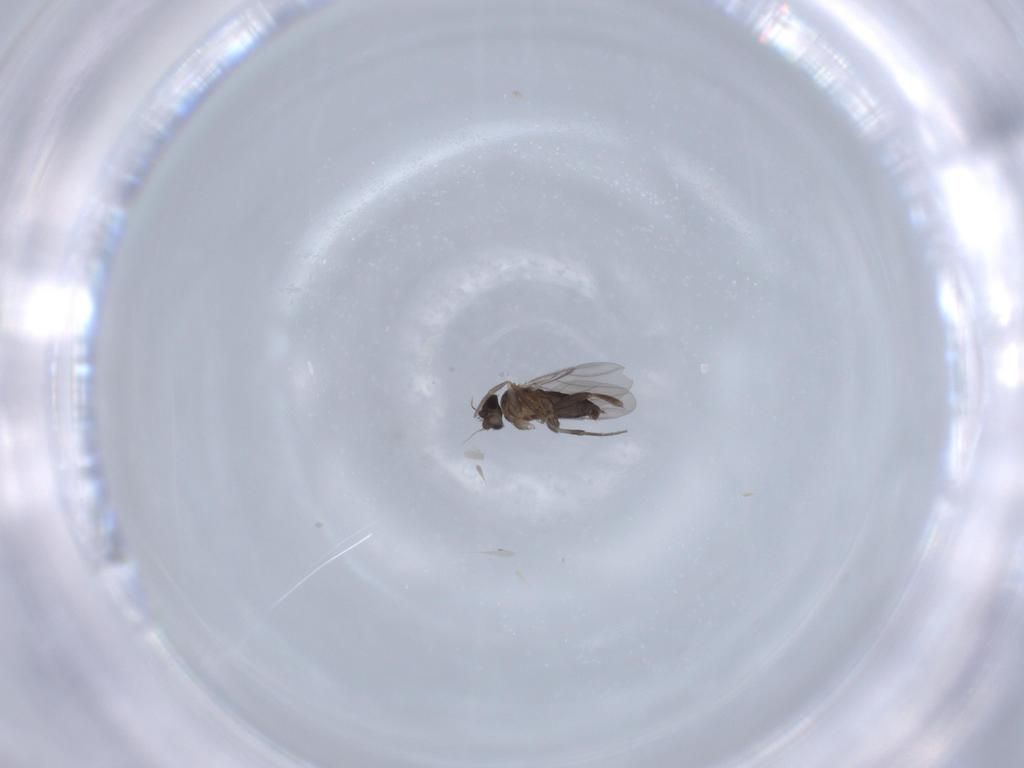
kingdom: Animalia
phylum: Arthropoda
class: Insecta
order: Diptera
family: Phoridae
